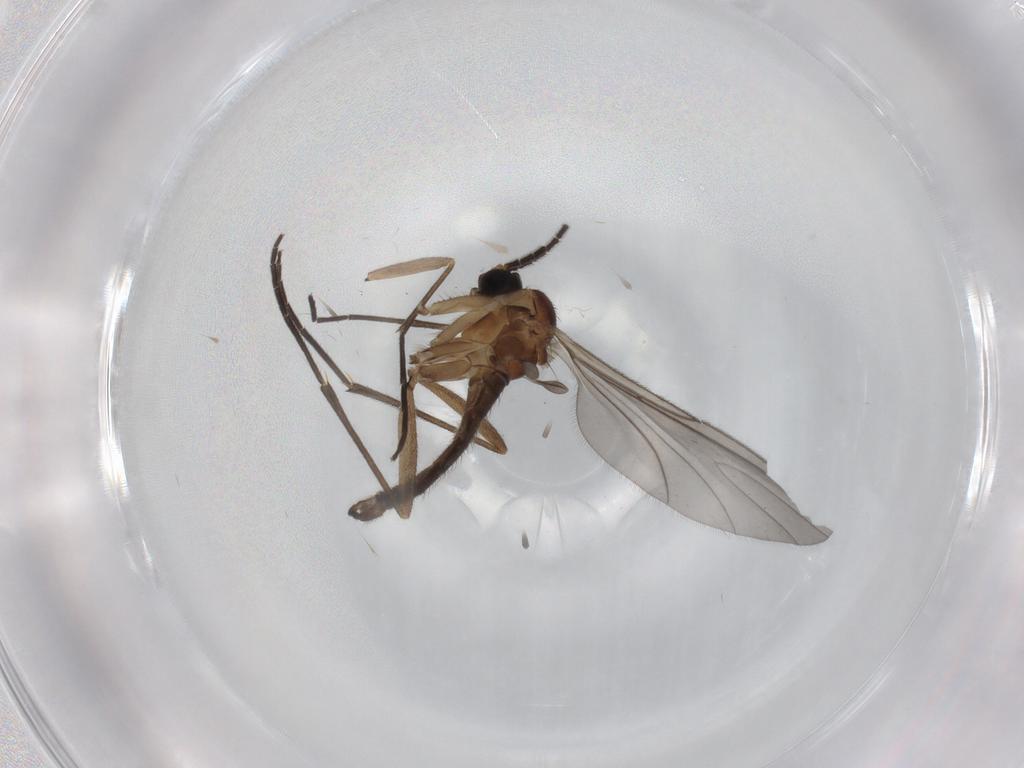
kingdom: Animalia
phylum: Arthropoda
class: Insecta
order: Diptera
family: Sciaridae
